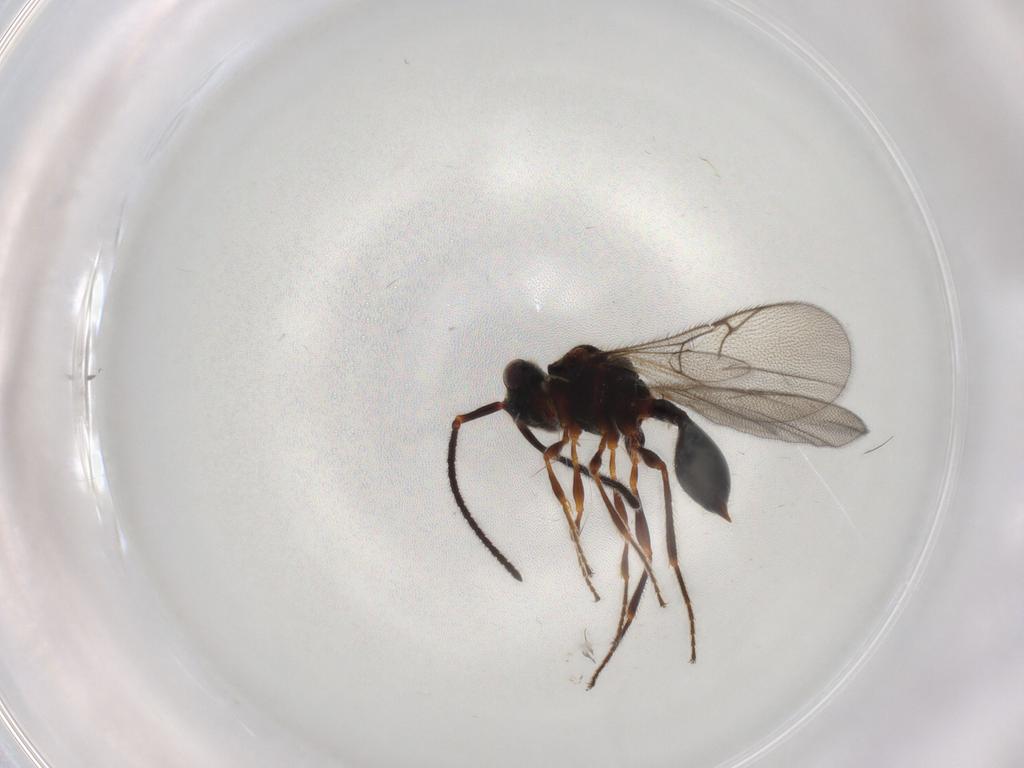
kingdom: Animalia
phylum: Arthropoda
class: Insecta
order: Hymenoptera
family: Diapriidae
